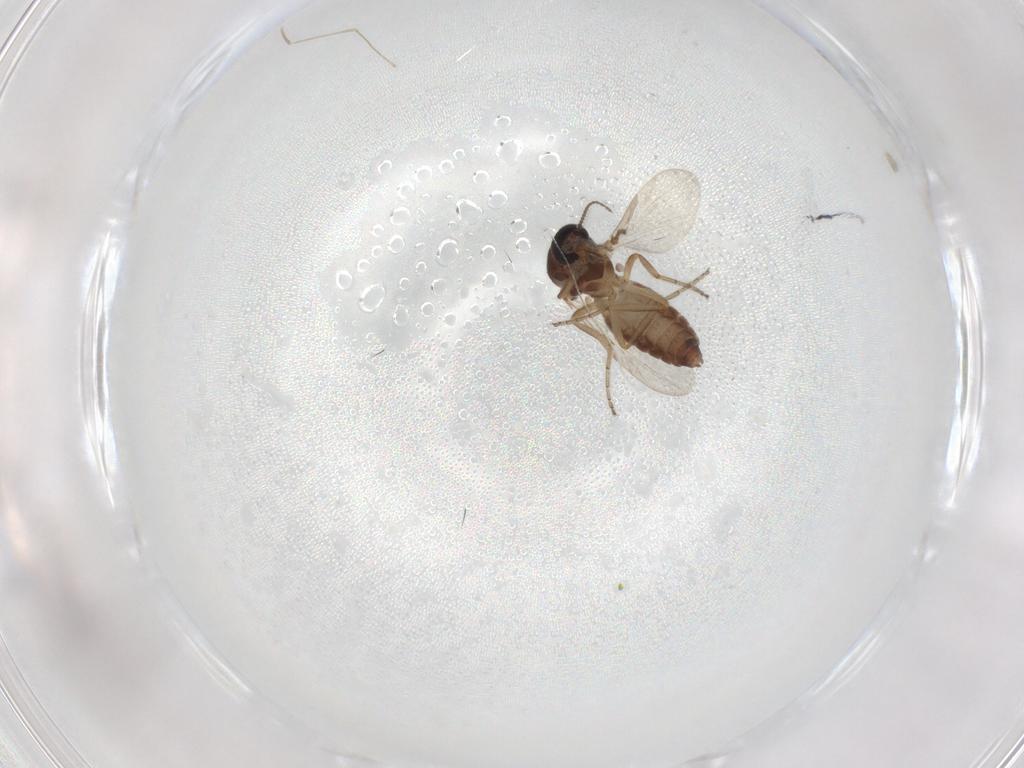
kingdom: Animalia
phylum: Arthropoda
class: Insecta
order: Diptera
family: Ceratopogonidae
